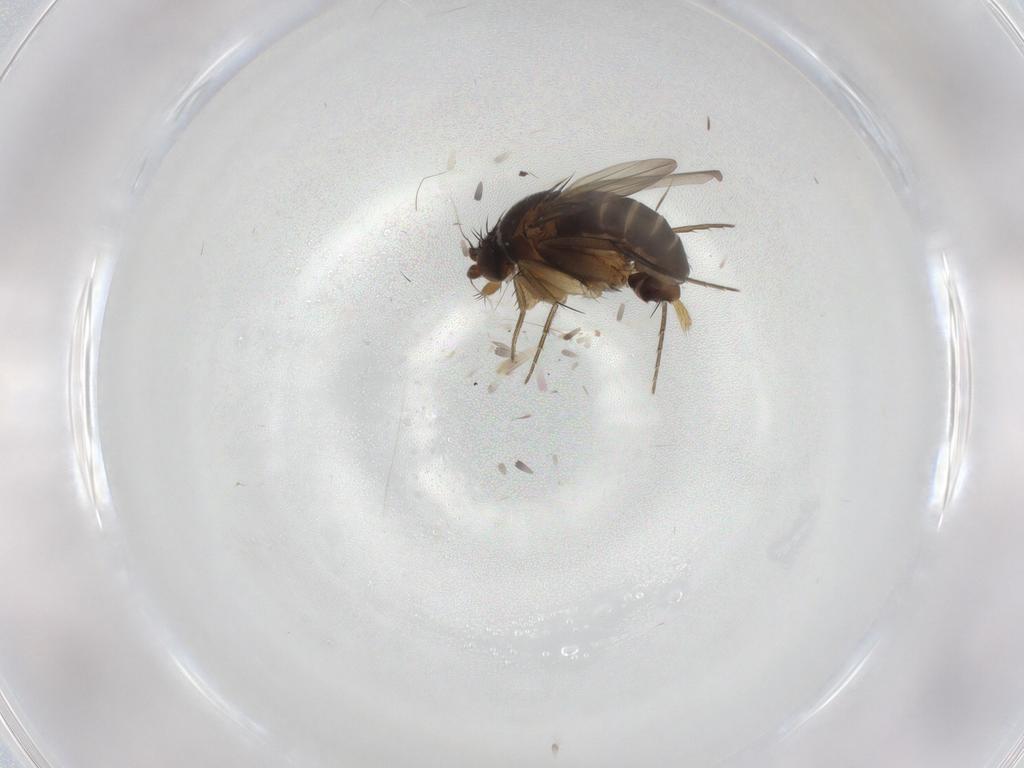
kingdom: Animalia
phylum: Arthropoda
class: Insecta
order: Diptera
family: Phoridae
